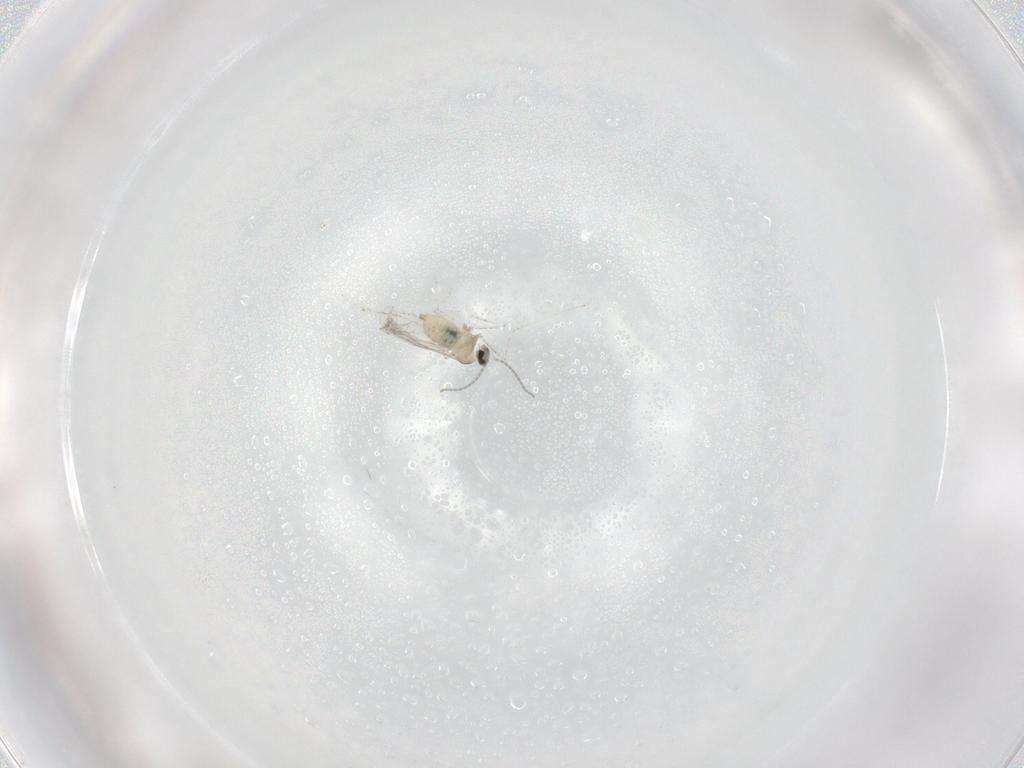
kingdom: Animalia
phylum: Arthropoda
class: Insecta
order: Diptera
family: Cecidomyiidae
